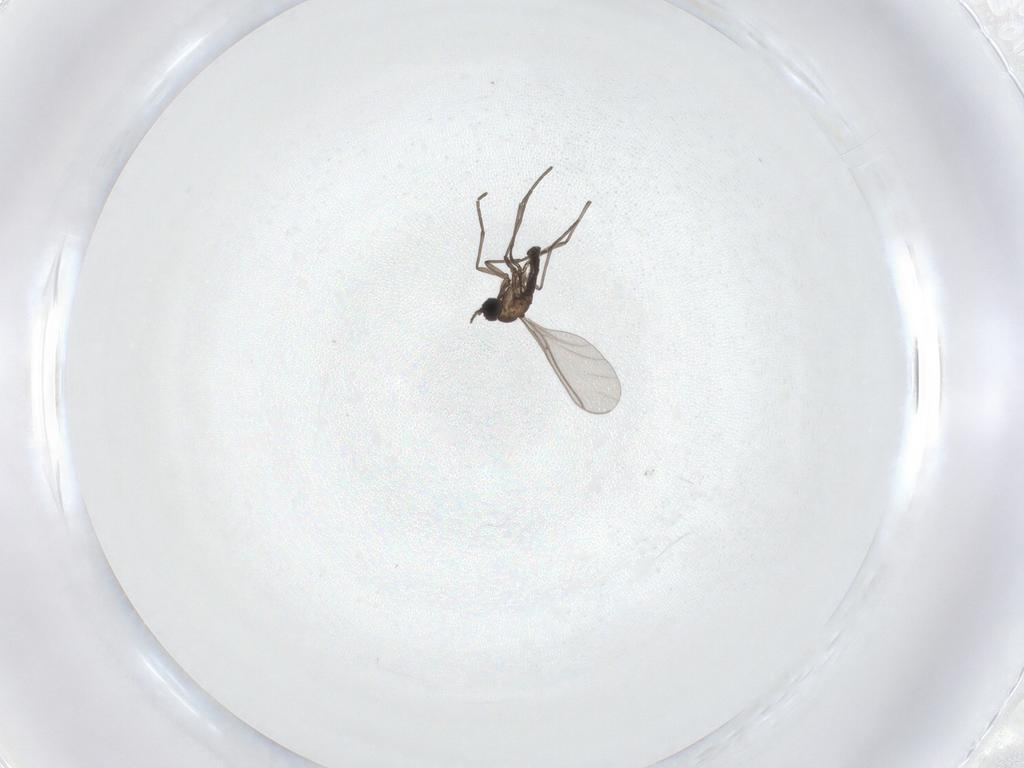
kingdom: Animalia
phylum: Arthropoda
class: Insecta
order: Diptera
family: Sciaridae
